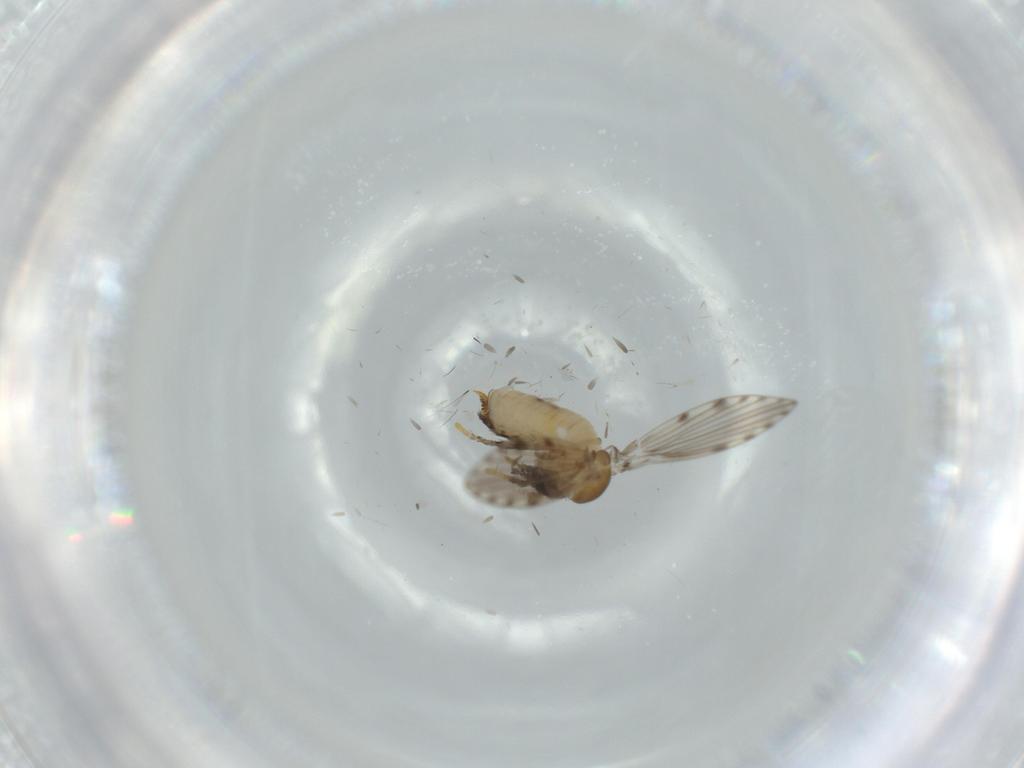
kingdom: Animalia
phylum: Arthropoda
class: Insecta
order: Diptera
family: Psychodidae
